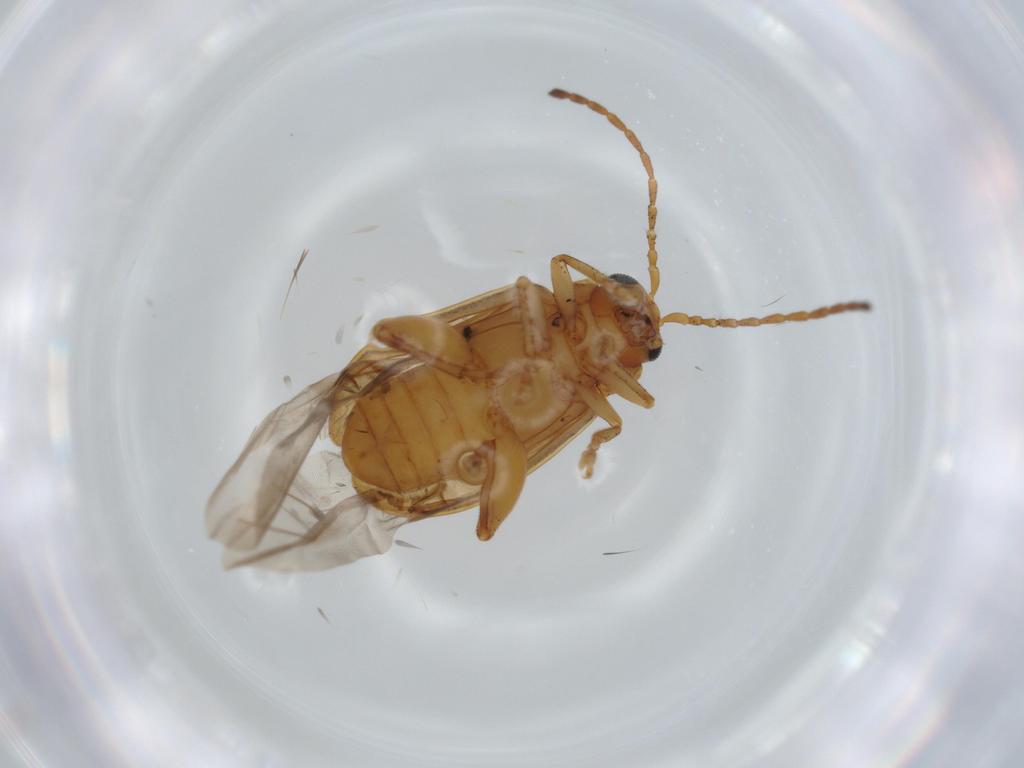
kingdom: Animalia
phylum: Arthropoda
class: Insecta
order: Coleoptera
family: Chrysomelidae
